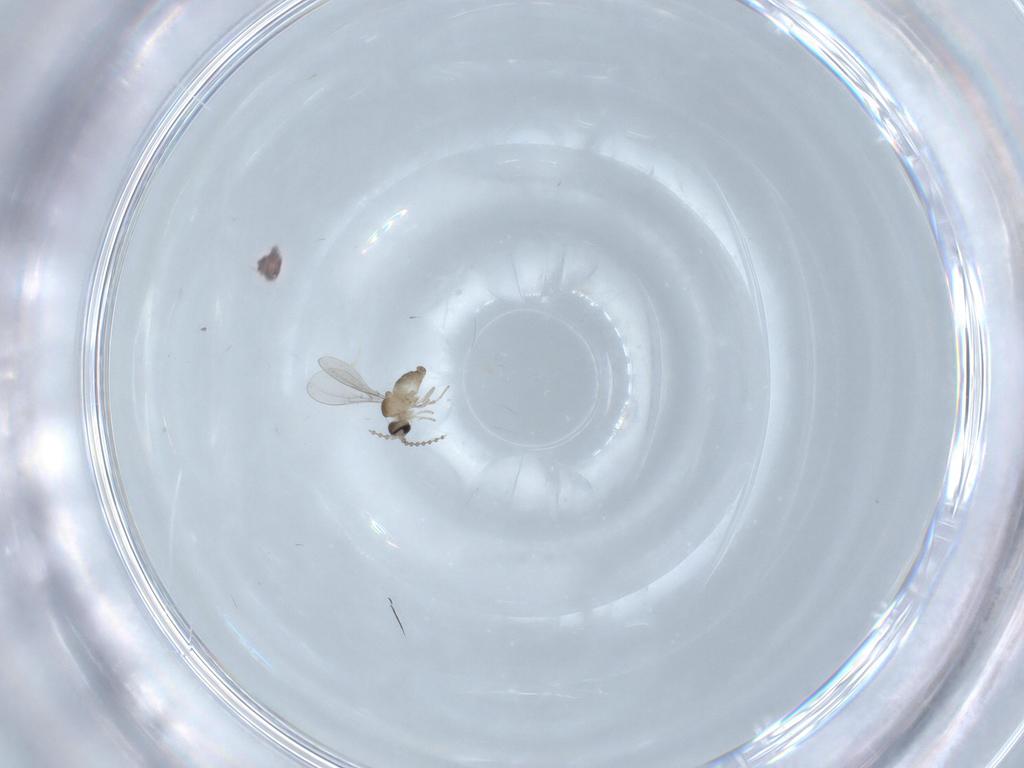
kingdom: Animalia
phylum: Arthropoda
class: Insecta
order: Diptera
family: Cecidomyiidae
